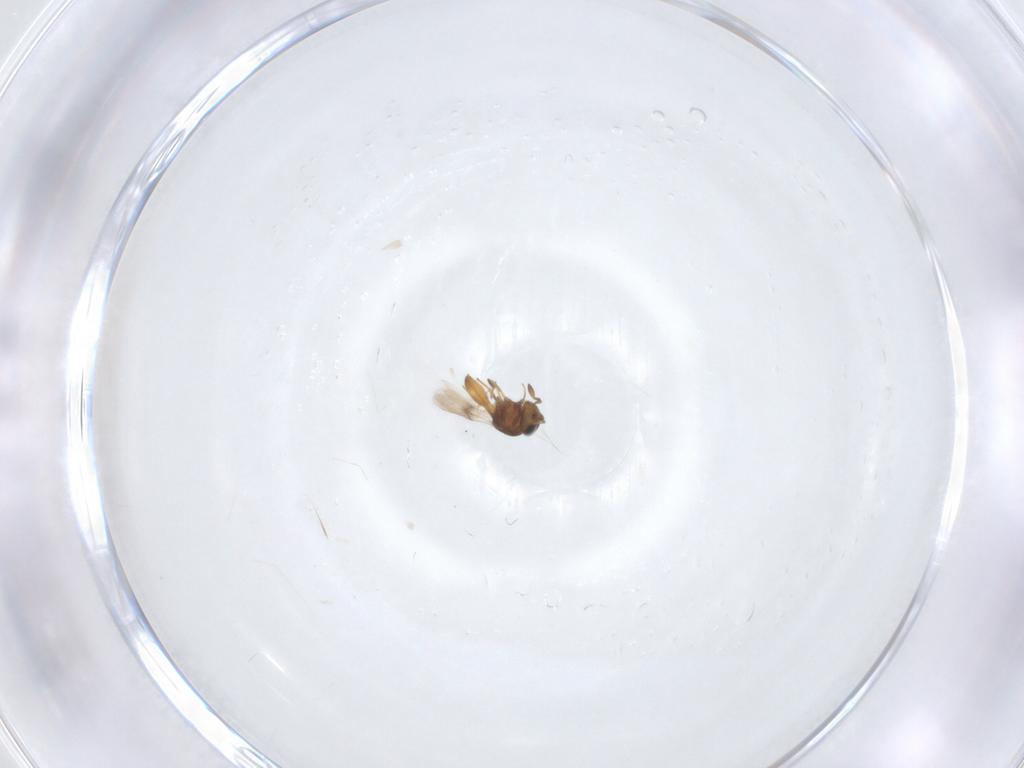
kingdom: Animalia
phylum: Arthropoda
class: Insecta
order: Hymenoptera
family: Scelionidae
